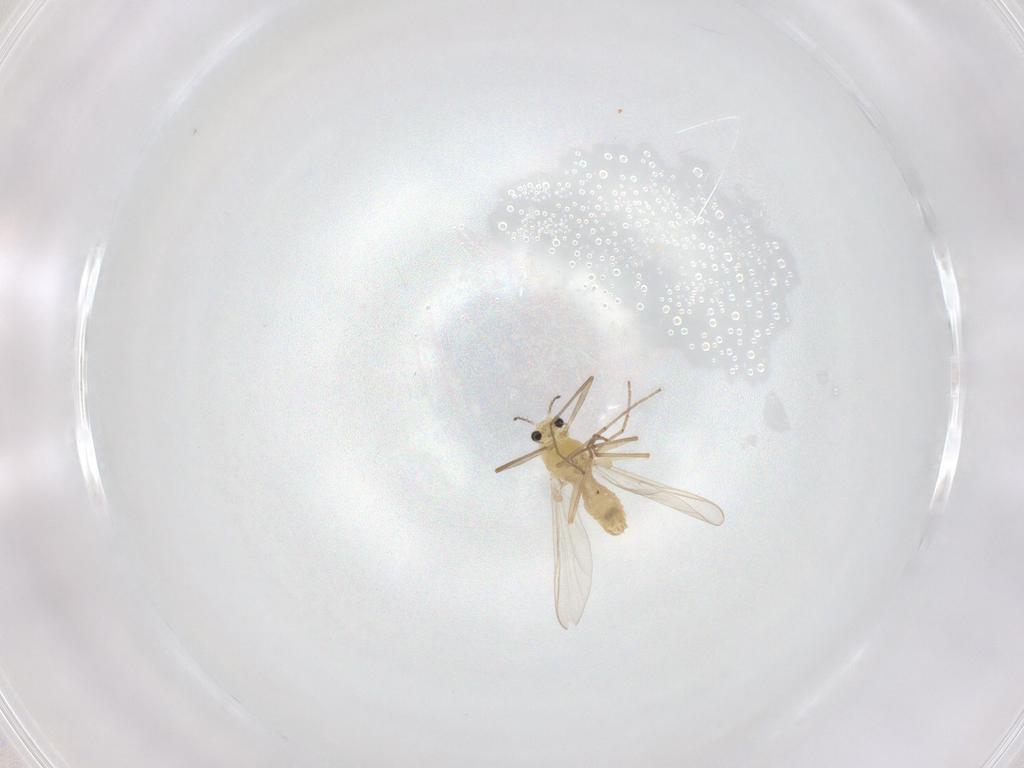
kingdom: Animalia
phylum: Arthropoda
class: Insecta
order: Diptera
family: Chironomidae
